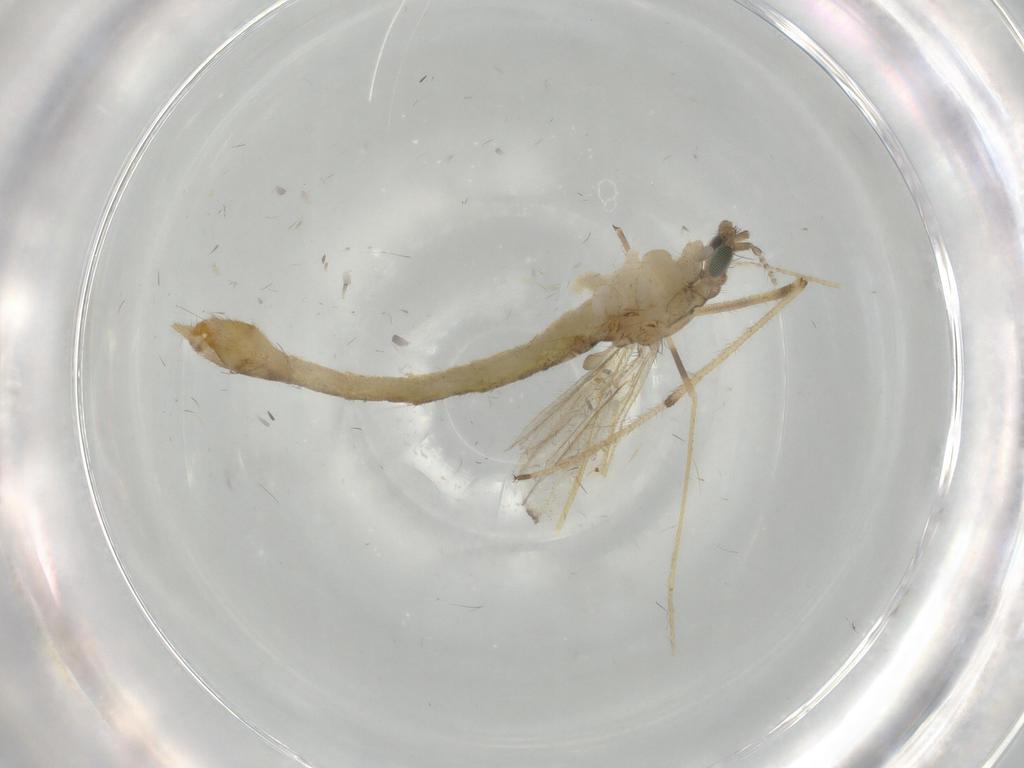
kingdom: Animalia
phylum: Arthropoda
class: Insecta
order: Diptera
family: Limoniidae
